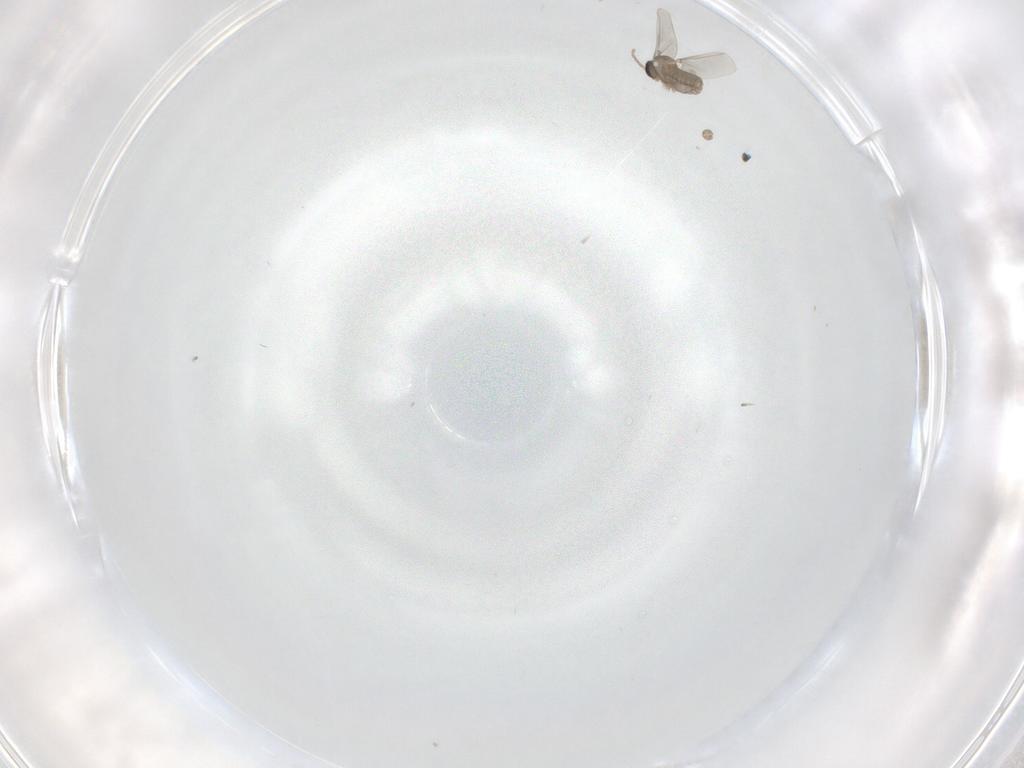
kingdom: Animalia
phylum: Arthropoda
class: Insecta
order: Diptera
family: Cecidomyiidae
